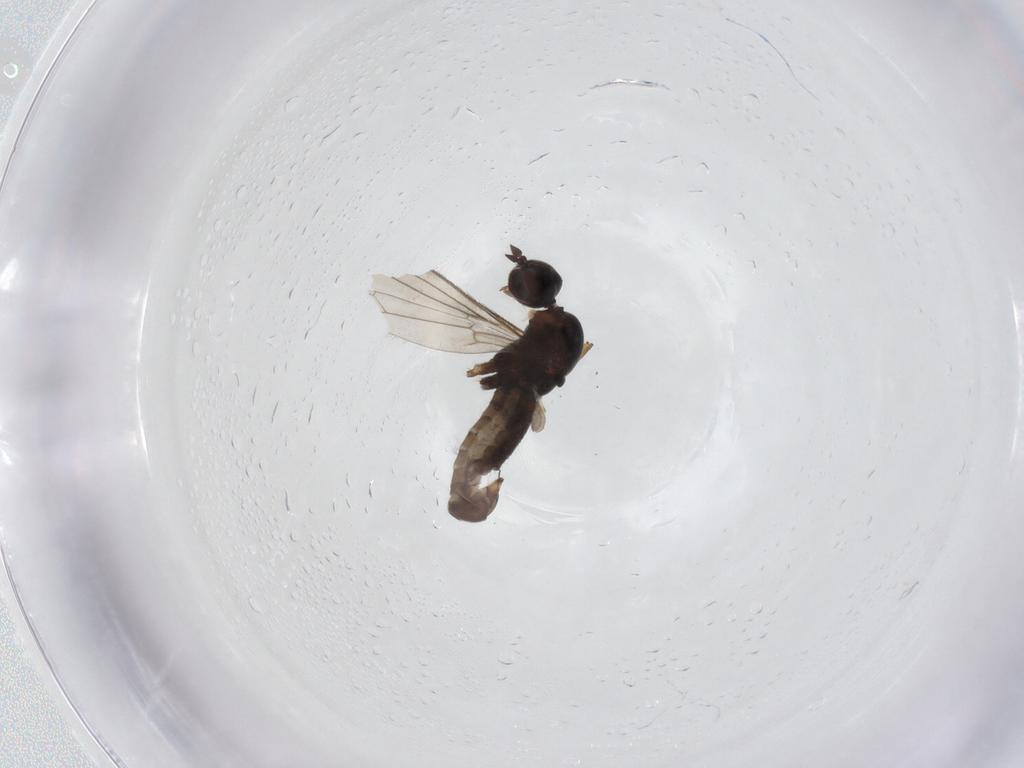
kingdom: Animalia
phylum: Arthropoda
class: Insecta
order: Diptera
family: Empididae
